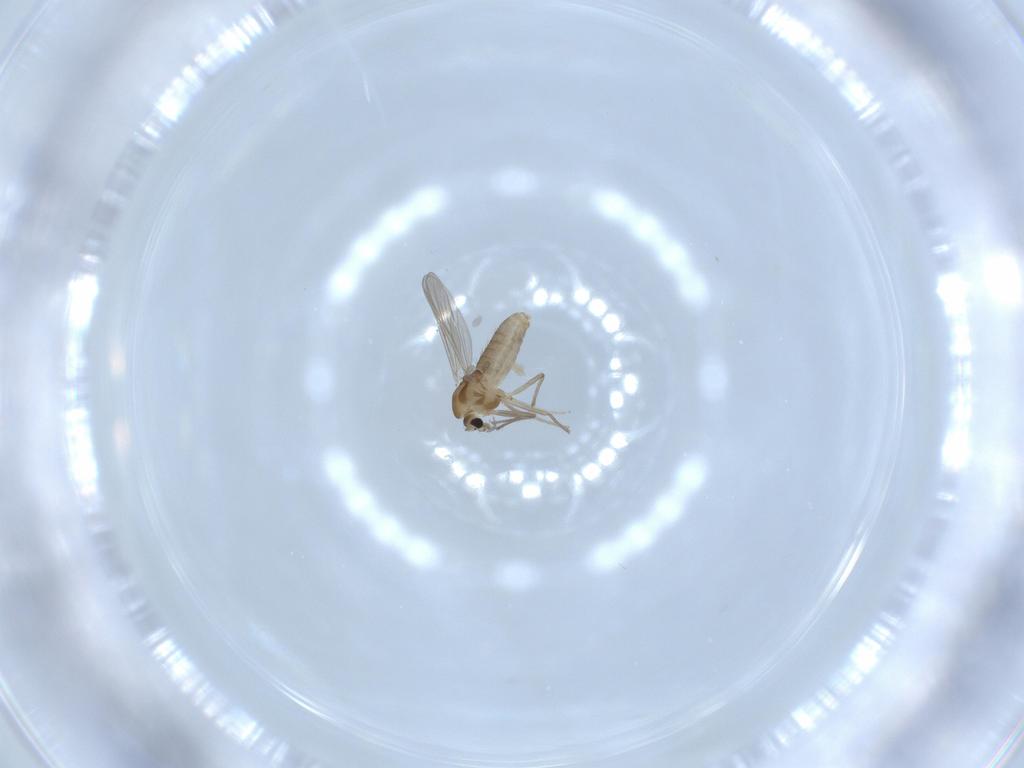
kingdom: Animalia
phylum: Arthropoda
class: Insecta
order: Diptera
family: Chironomidae
